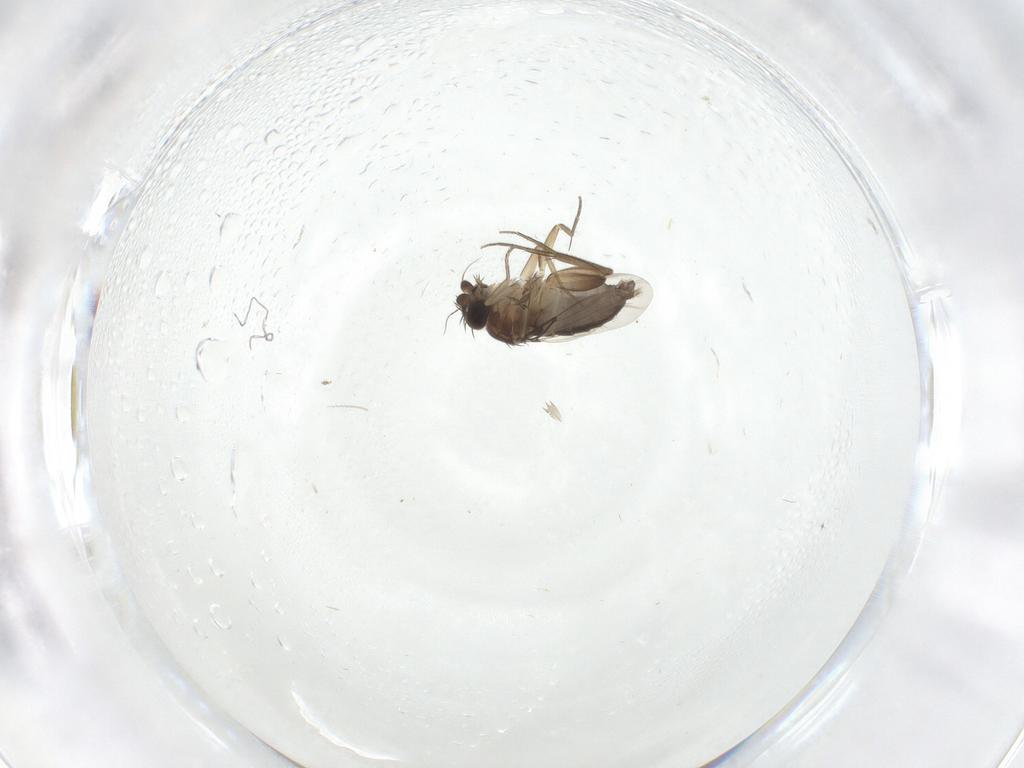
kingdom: Animalia
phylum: Arthropoda
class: Insecta
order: Diptera
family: Phoridae
